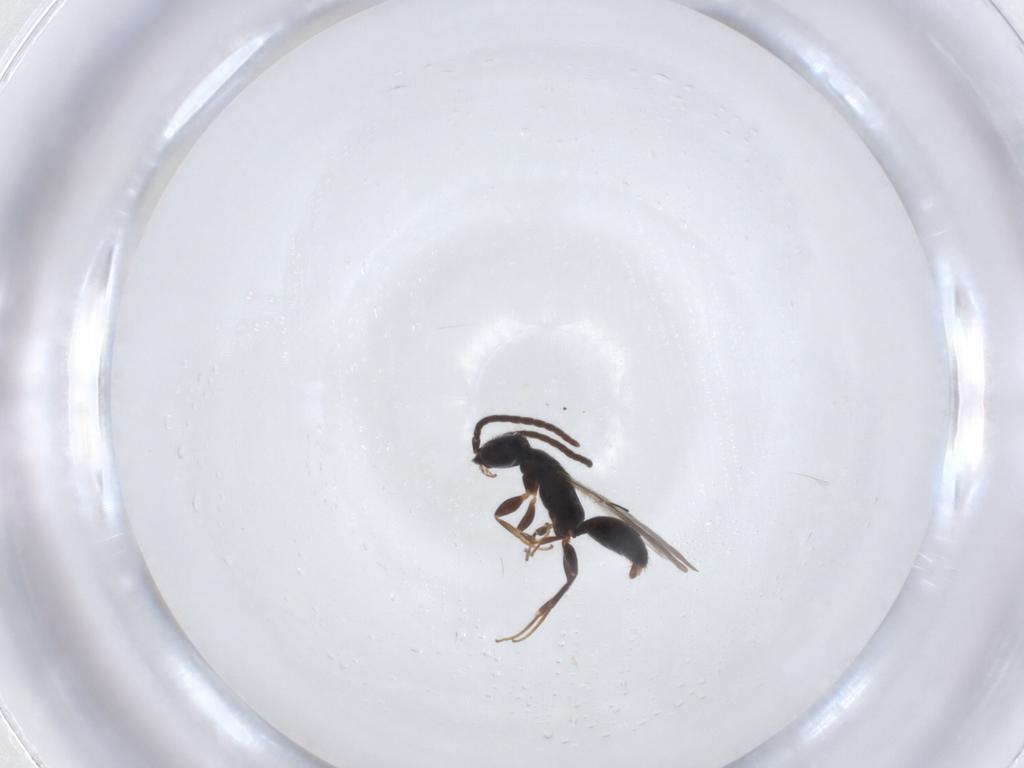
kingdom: Animalia
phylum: Arthropoda
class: Insecta
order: Hymenoptera
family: Bethylidae
